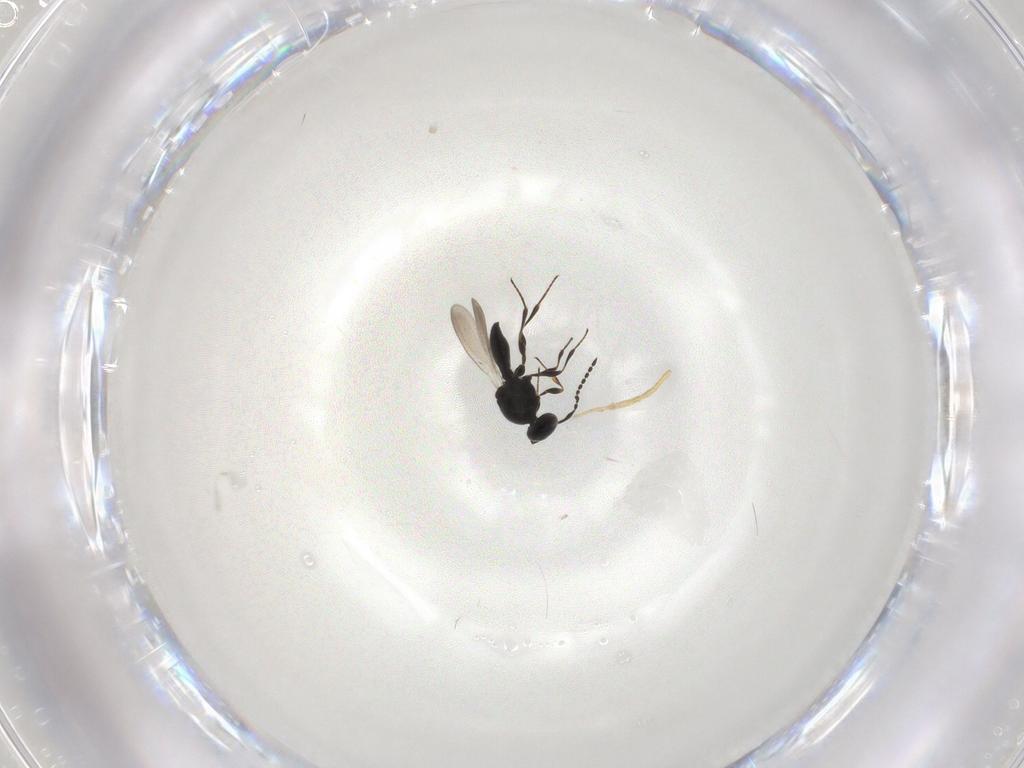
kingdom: Animalia
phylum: Arthropoda
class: Insecta
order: Hymenoptera
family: Platygastridae
